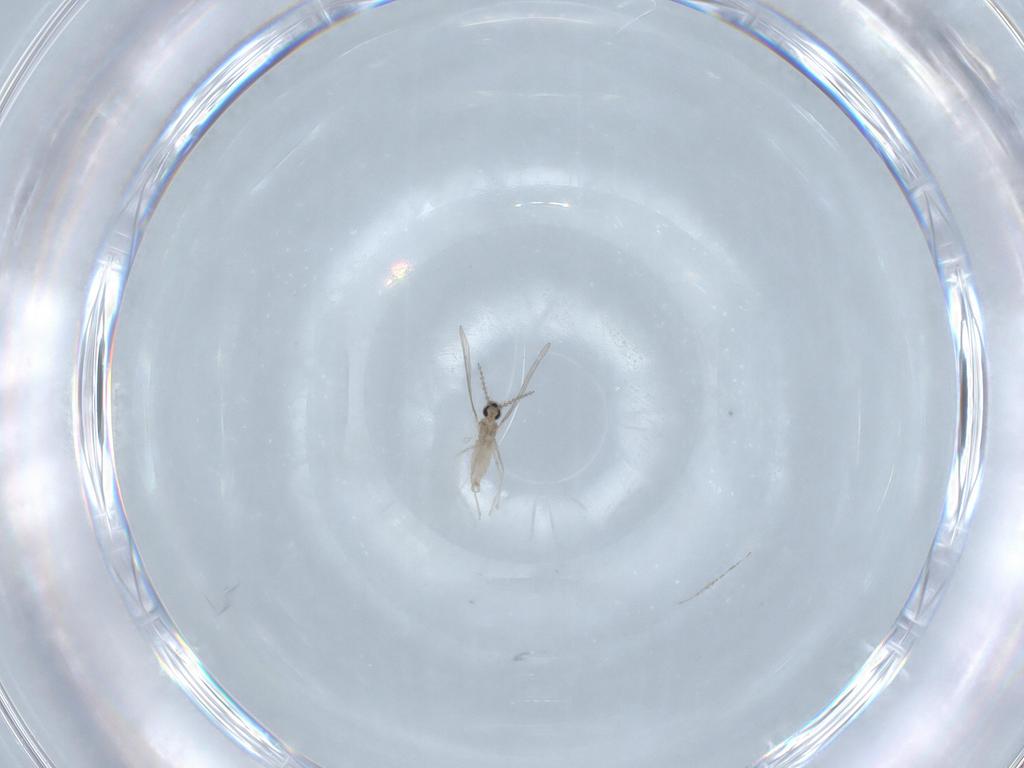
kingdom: Animalia
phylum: Arthropoda
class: Insecta
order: Diptera
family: Cecidomyiidae
